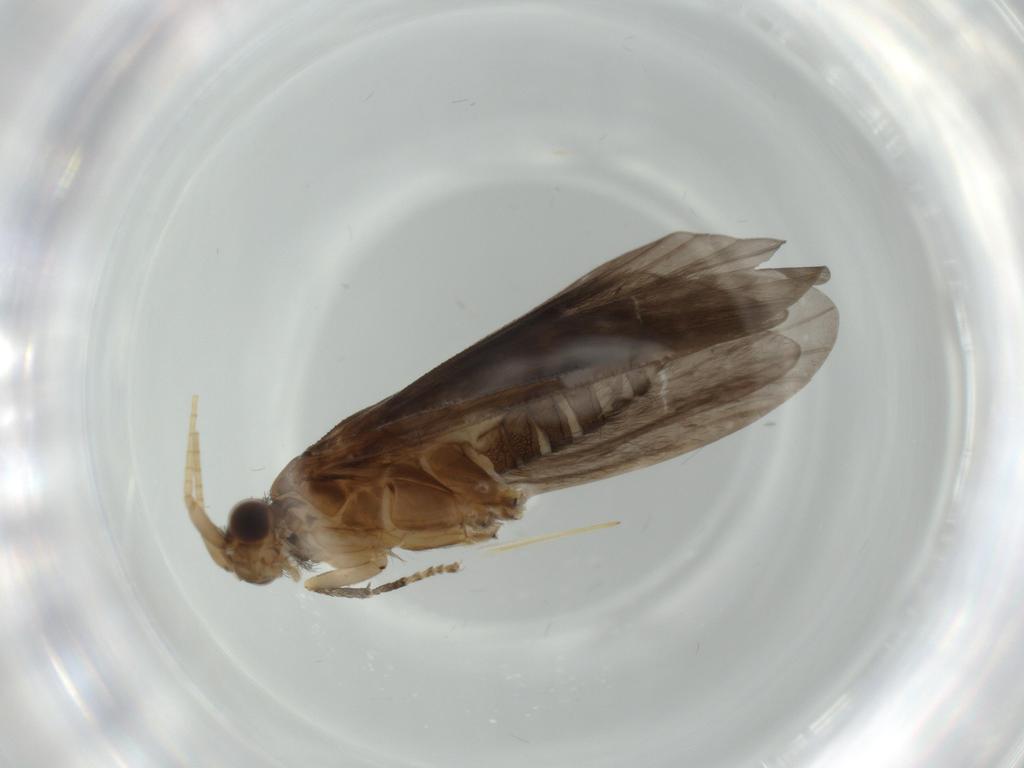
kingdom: Animalia
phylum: Arthropoda
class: Insecta
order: Trichoptera
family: Helicopsychidae
